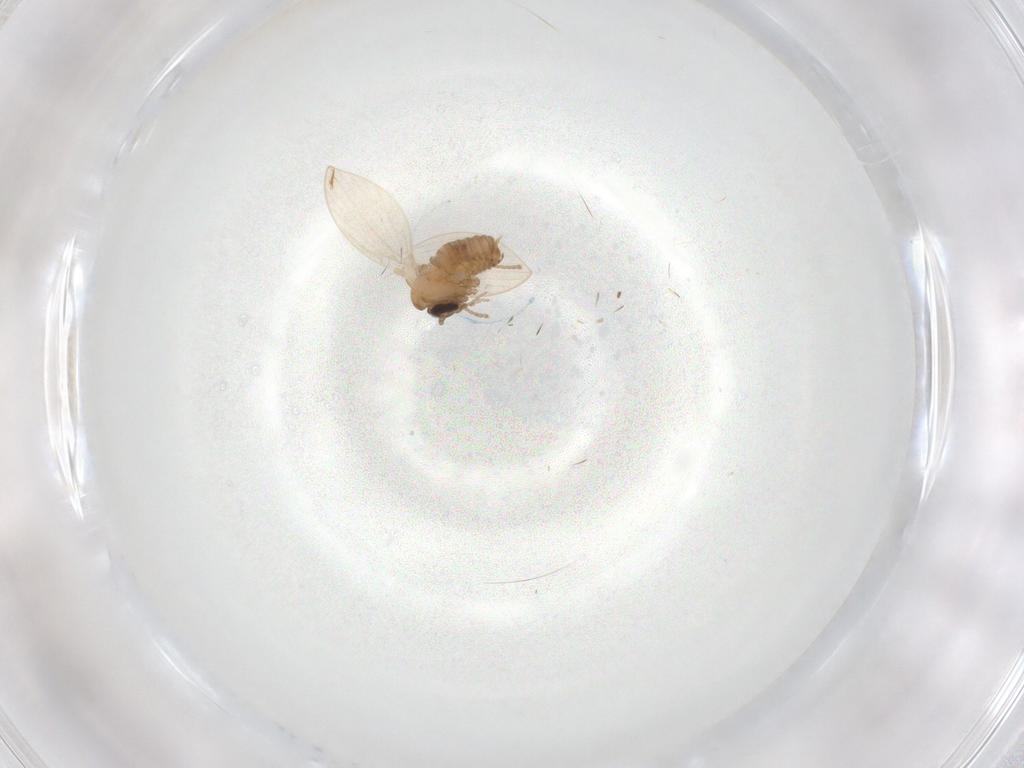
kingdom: Animalia
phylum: Arthropoda
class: Insecta
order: Diptera
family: Psychodidae
